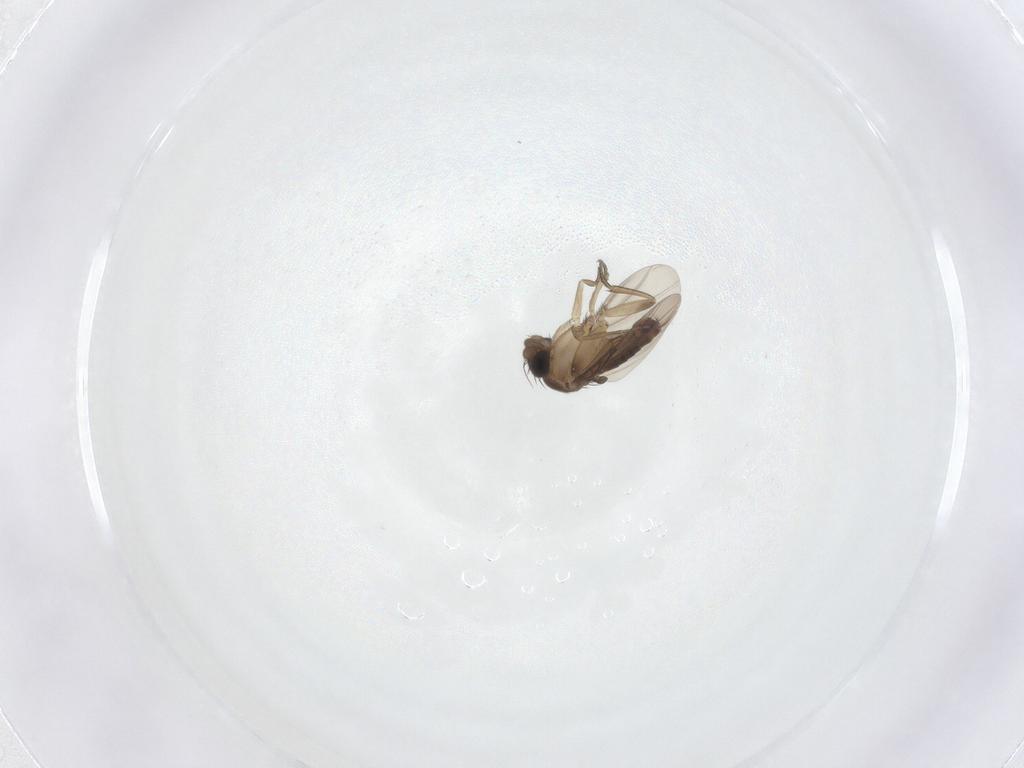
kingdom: Animalia
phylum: Arthropoda
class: Insecta
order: Diptera
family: Phoridae
